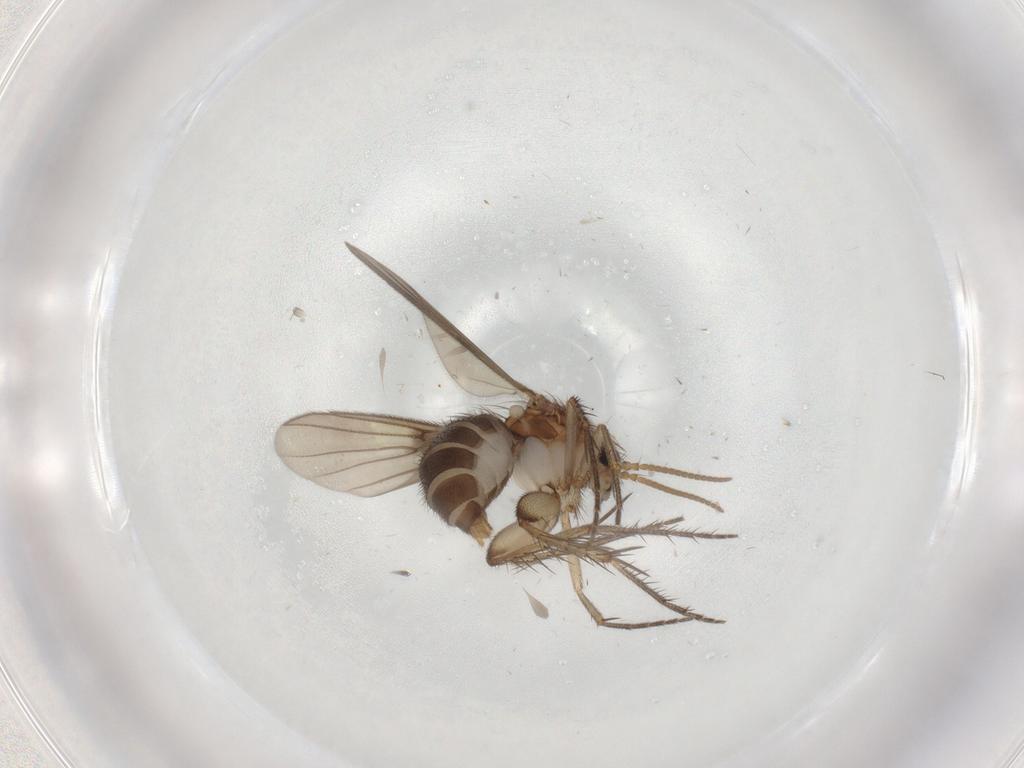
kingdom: Animalia
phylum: Arthropoda
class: Insecta
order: Diptera
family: Mycetophilidae
